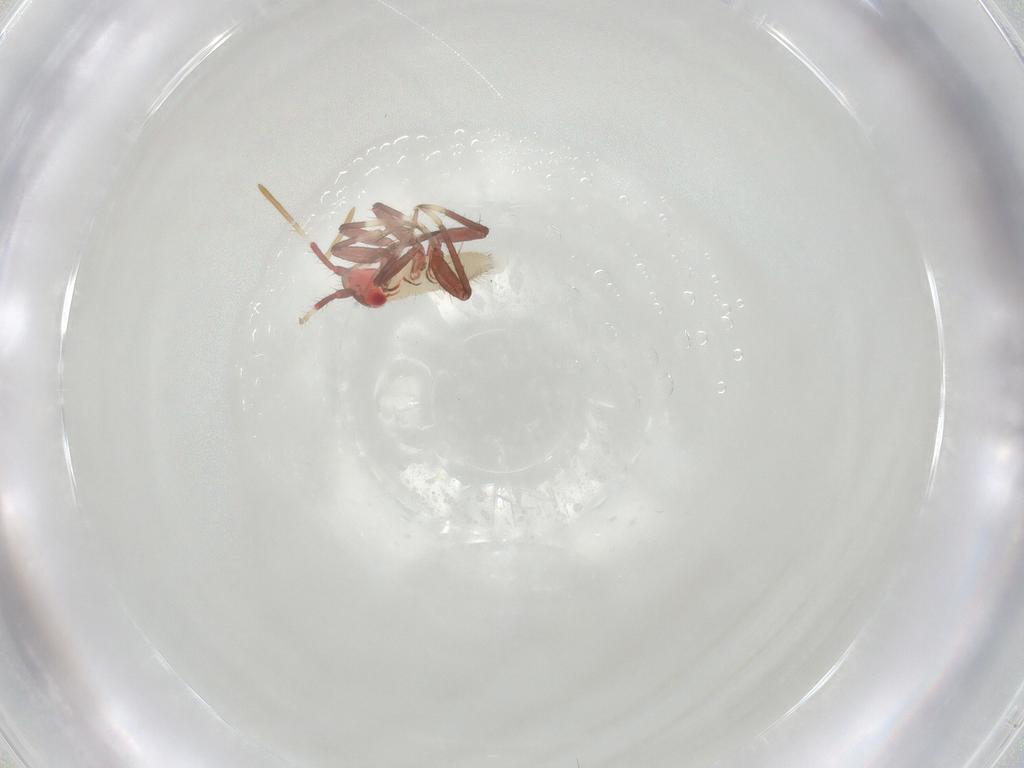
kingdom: Animalia
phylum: Arthropoda
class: Insecta
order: Hemiptera
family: Miridae
